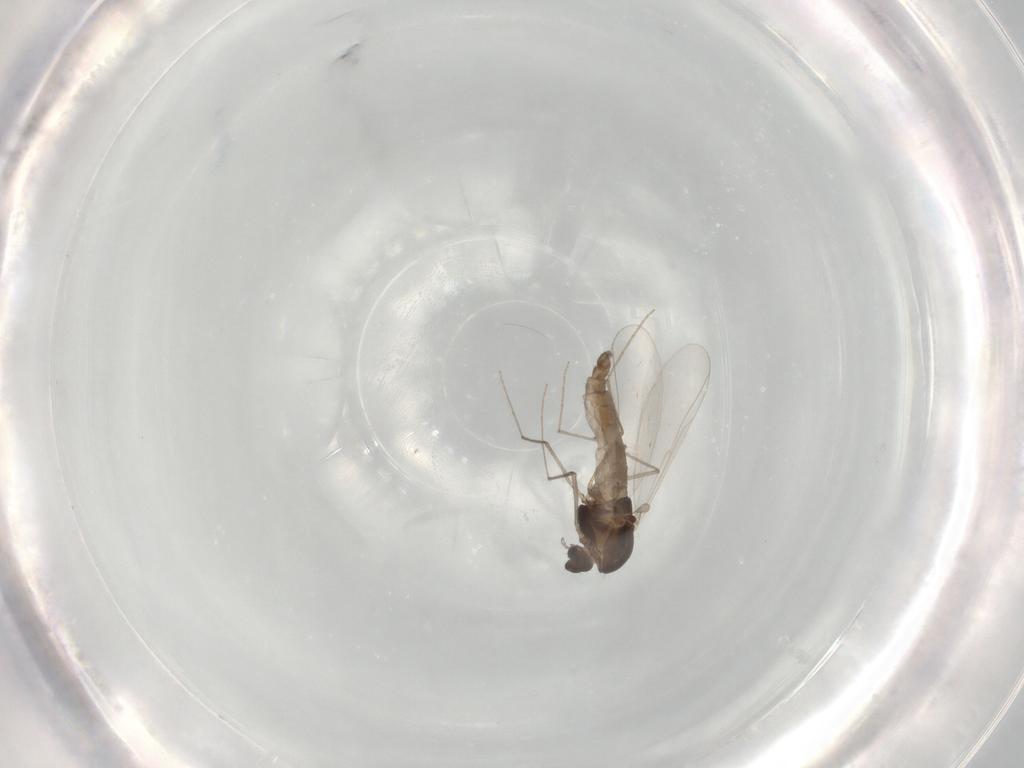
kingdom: Animalia
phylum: Arthropoda
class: Insecta
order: Diptera
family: Chironomidae
